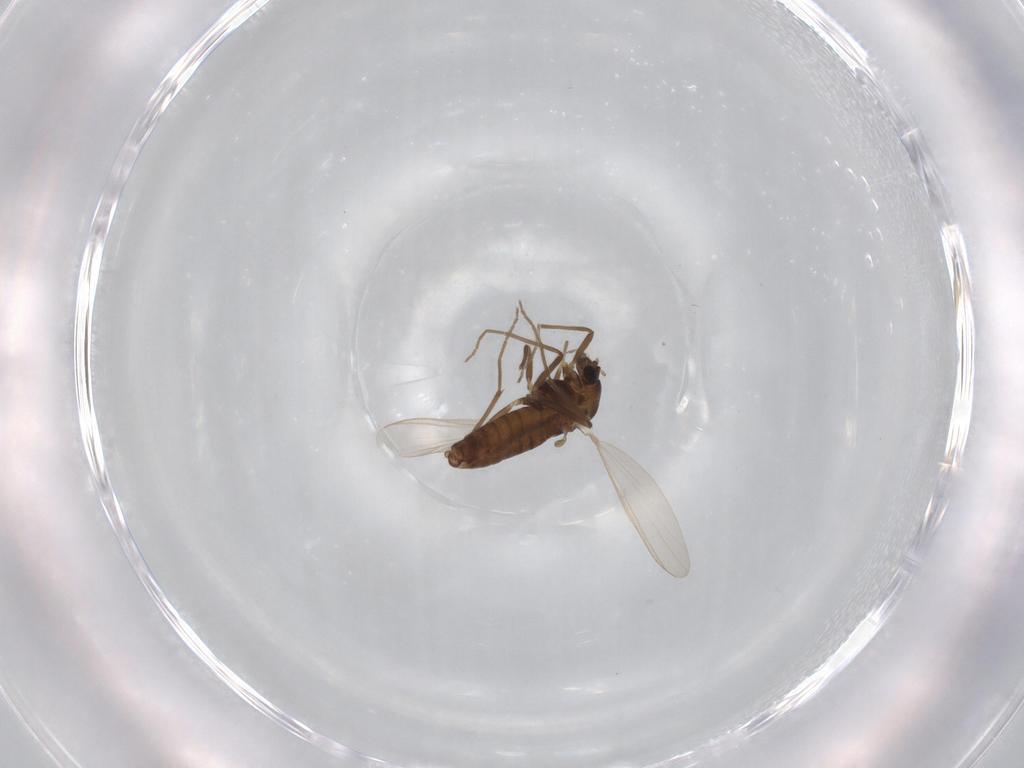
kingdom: Animalia
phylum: Arthropoda
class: Insecta
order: Diptera
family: Chironomidae
